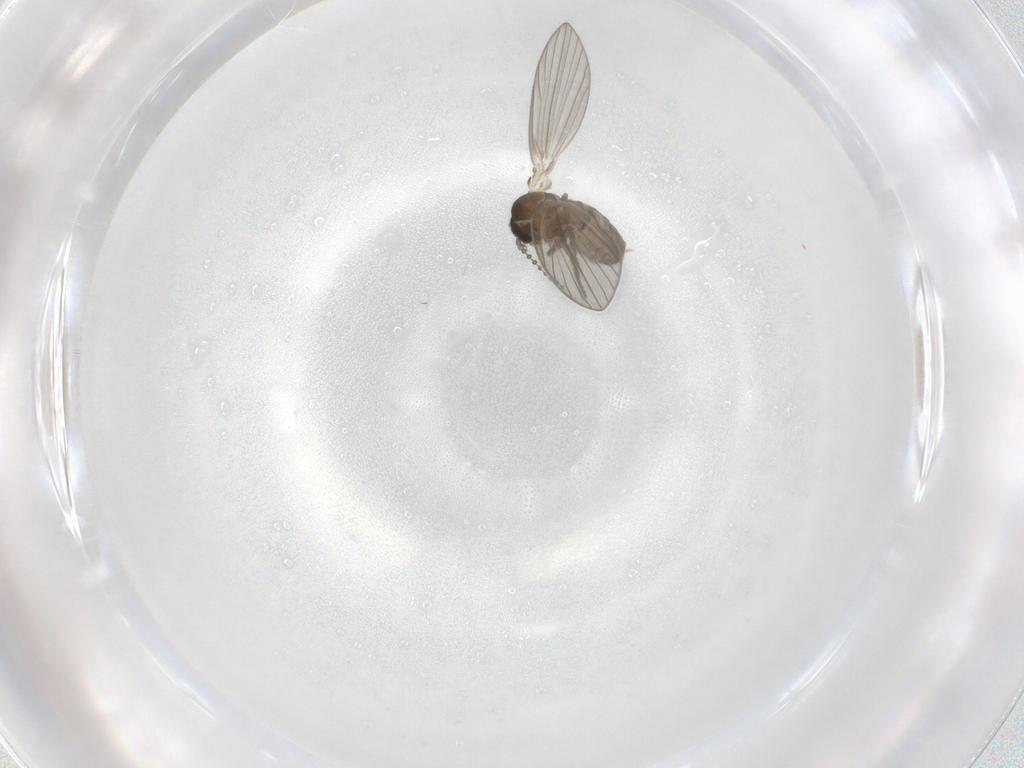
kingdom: Animalia
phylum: Arthropoda
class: Insecta
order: Diptera
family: Psychodidae
